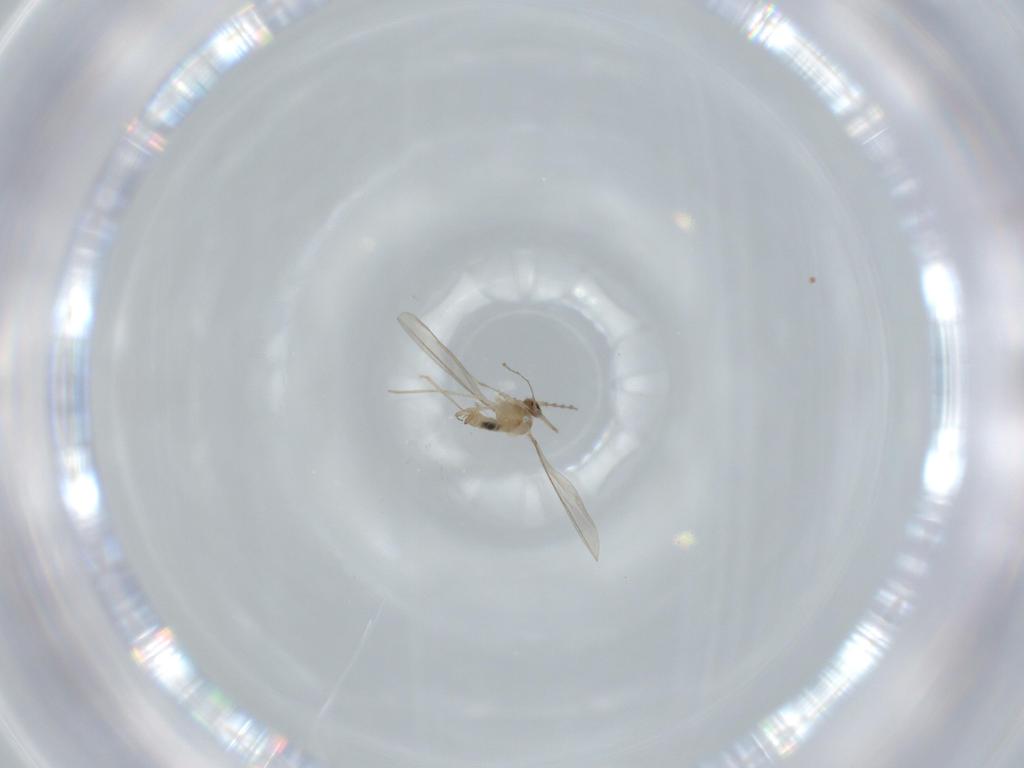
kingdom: Animalia
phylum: Arthropoda
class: Insecta
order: Diptera
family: Cecidomyiidae
